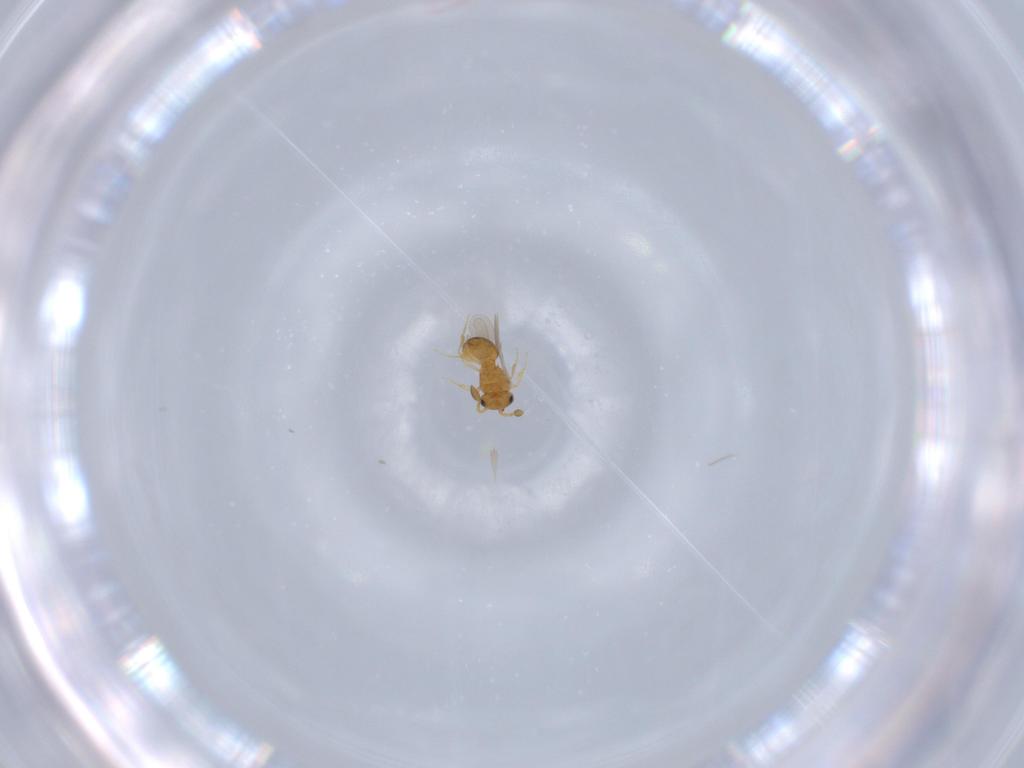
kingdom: Animalia
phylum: Arthropoda
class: Insecta
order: Hymenoptera
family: Scelionidae
